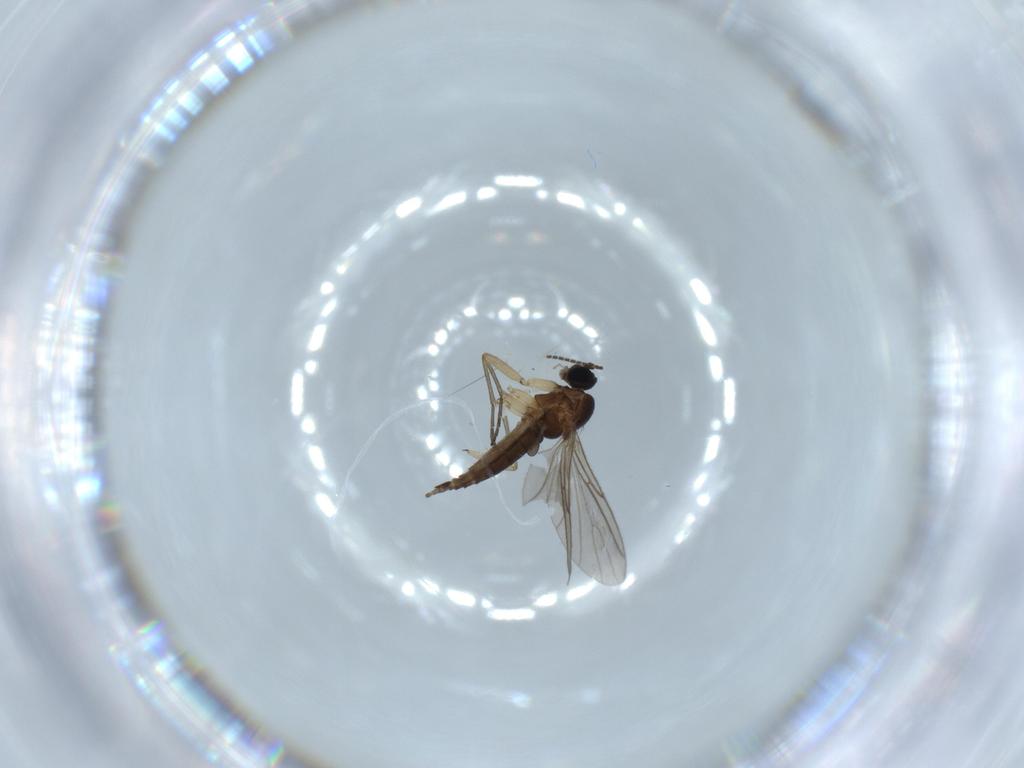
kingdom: Animalia
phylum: Arthropoda
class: Insecta
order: Diptera
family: Sciaridae
